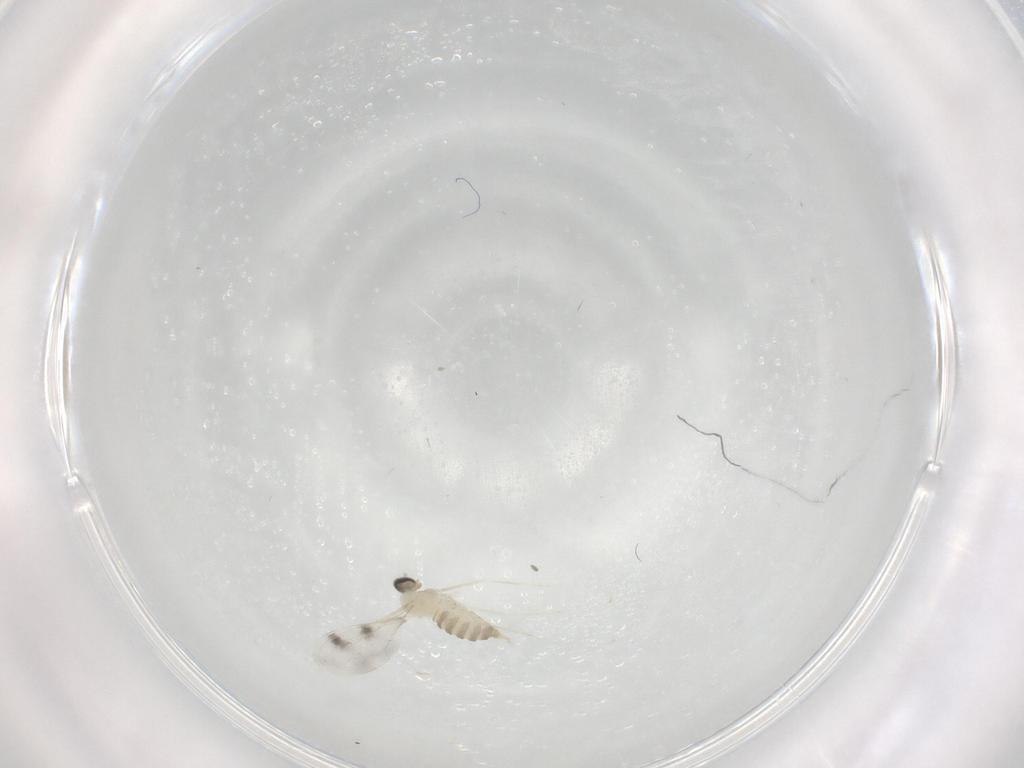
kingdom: Animalia
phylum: Arthropoda
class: Insecta
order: Diptera
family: Cecidomyiidae
